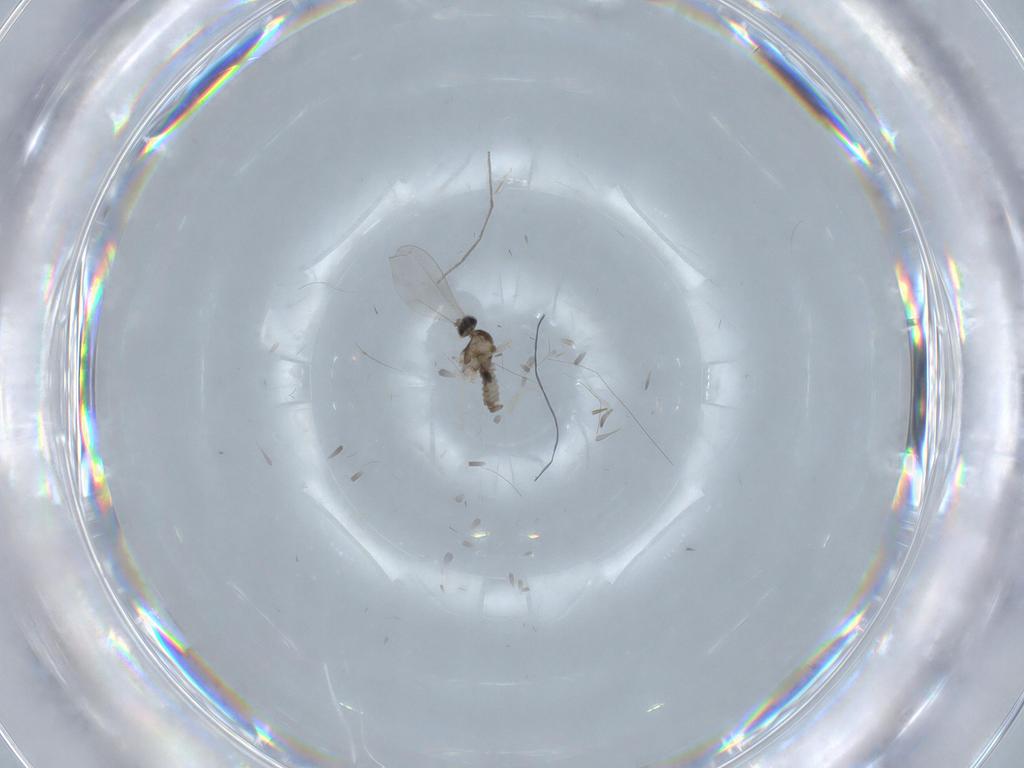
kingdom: Animalia
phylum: Arthropoda
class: Insecta
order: Diptera
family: Cecidomyiidae
